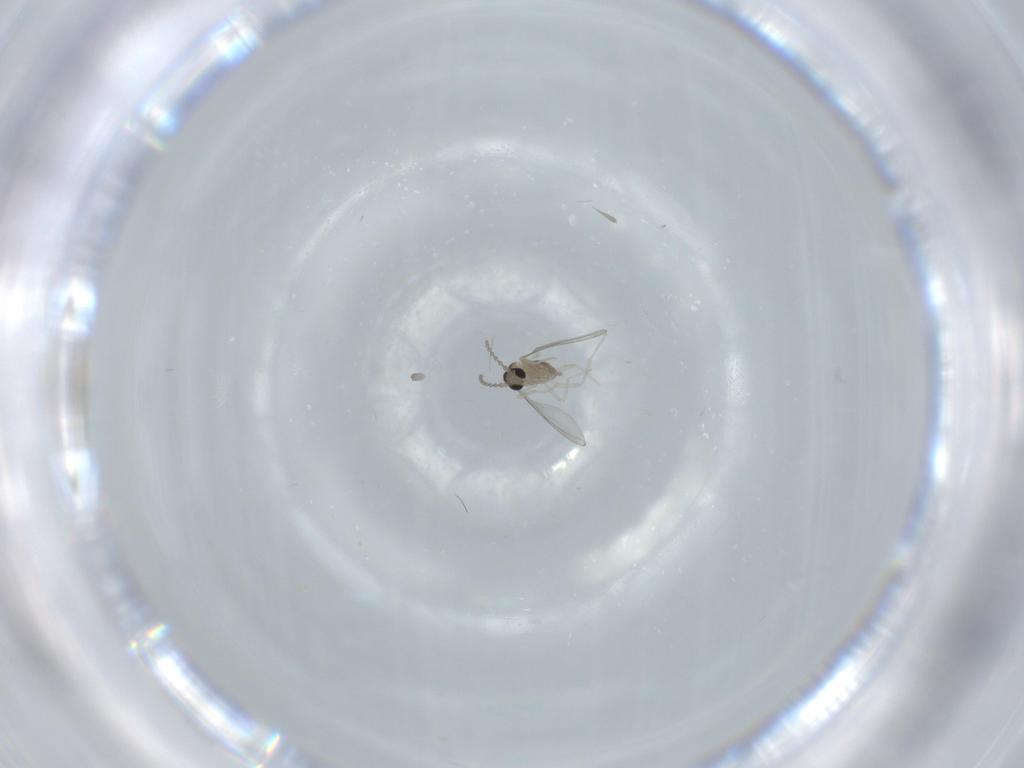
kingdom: Animalia
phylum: Arthropoda
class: Insecta
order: Diptera
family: Cecidomyiidae
